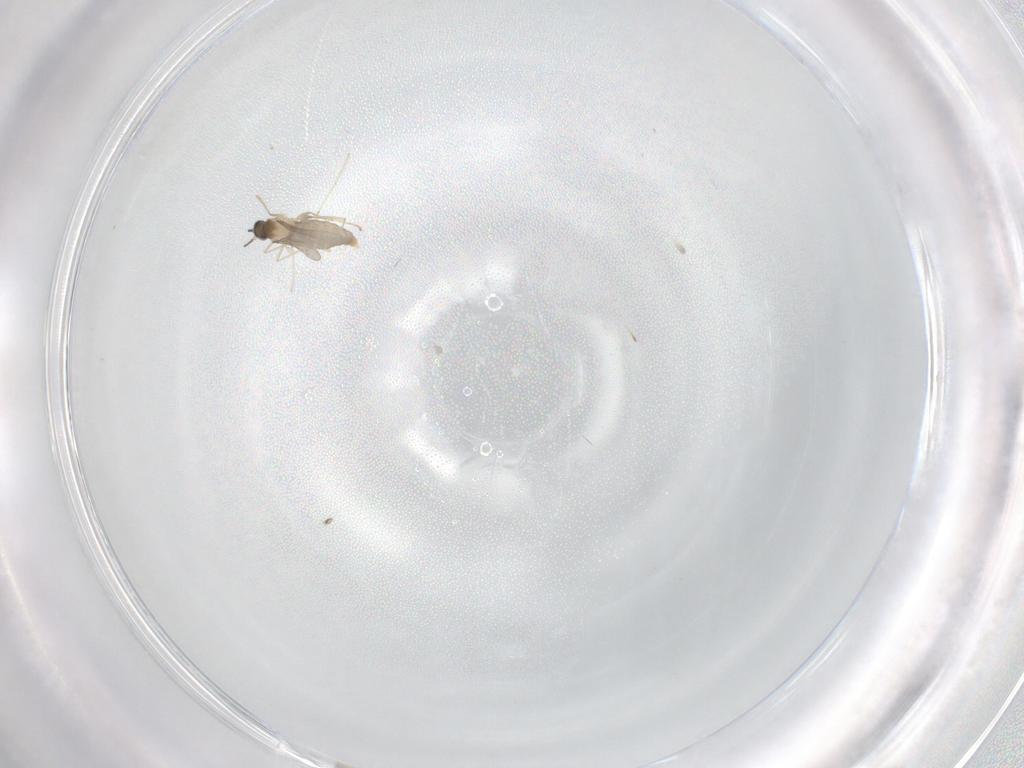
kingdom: Animalia
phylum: Arthropoda
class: Insecta
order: Diptera
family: Cecidomyiidae
